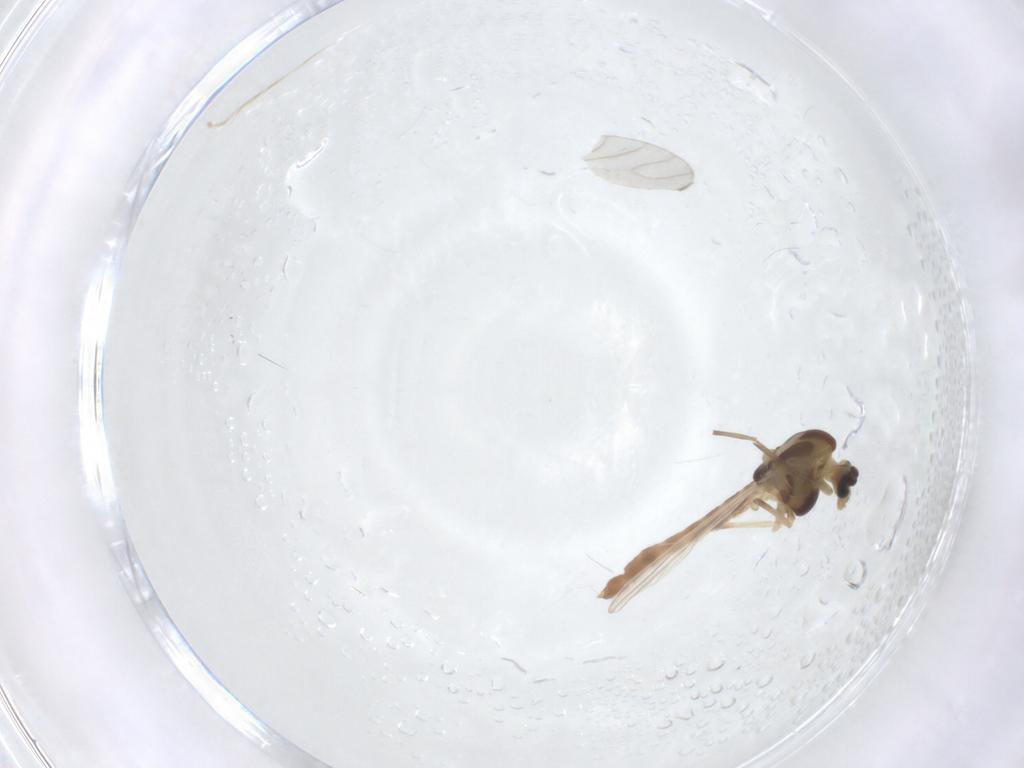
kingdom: Animalia
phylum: Arthropoda
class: Insecta
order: Diptera
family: Chironomidae
